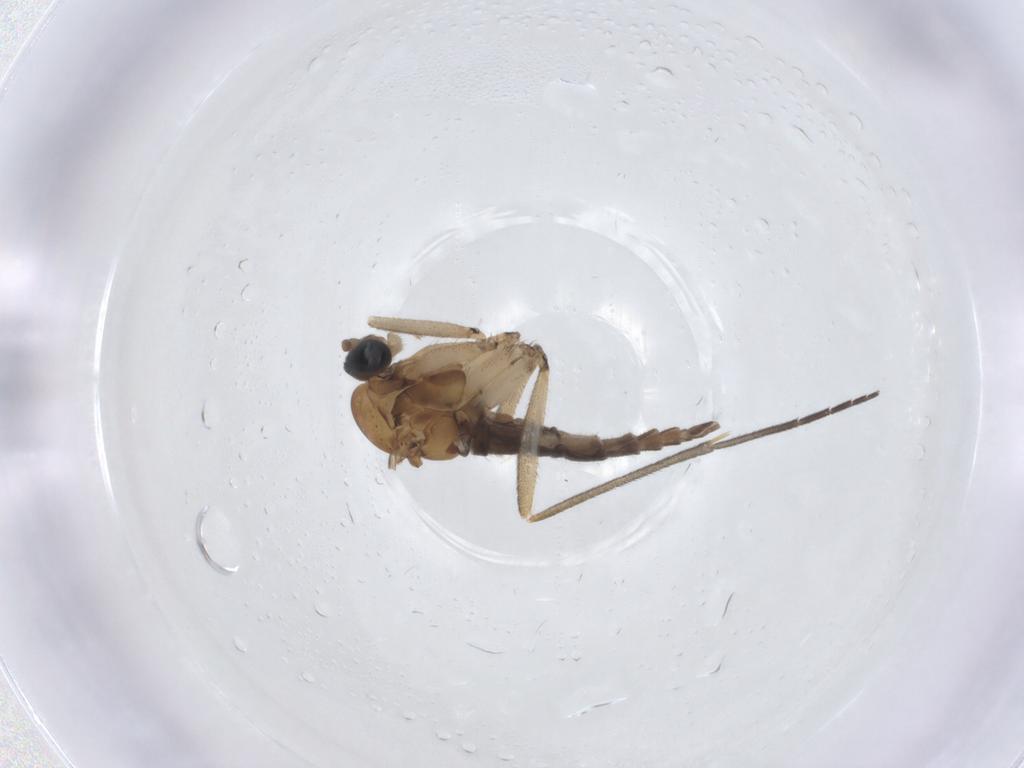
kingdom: Animalia
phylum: Arthropoda
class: Insecta
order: Diptera
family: Sciaridae
